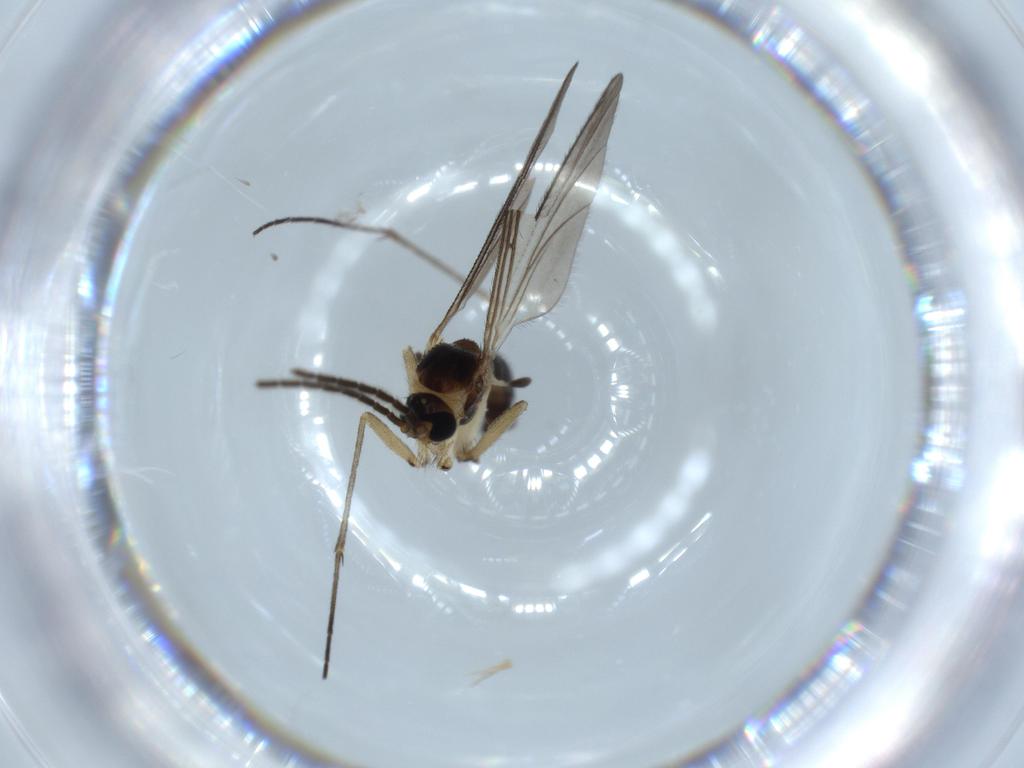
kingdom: Animalia
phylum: Arthropoda
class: Insecta
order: Diptera
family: Sciaridae
